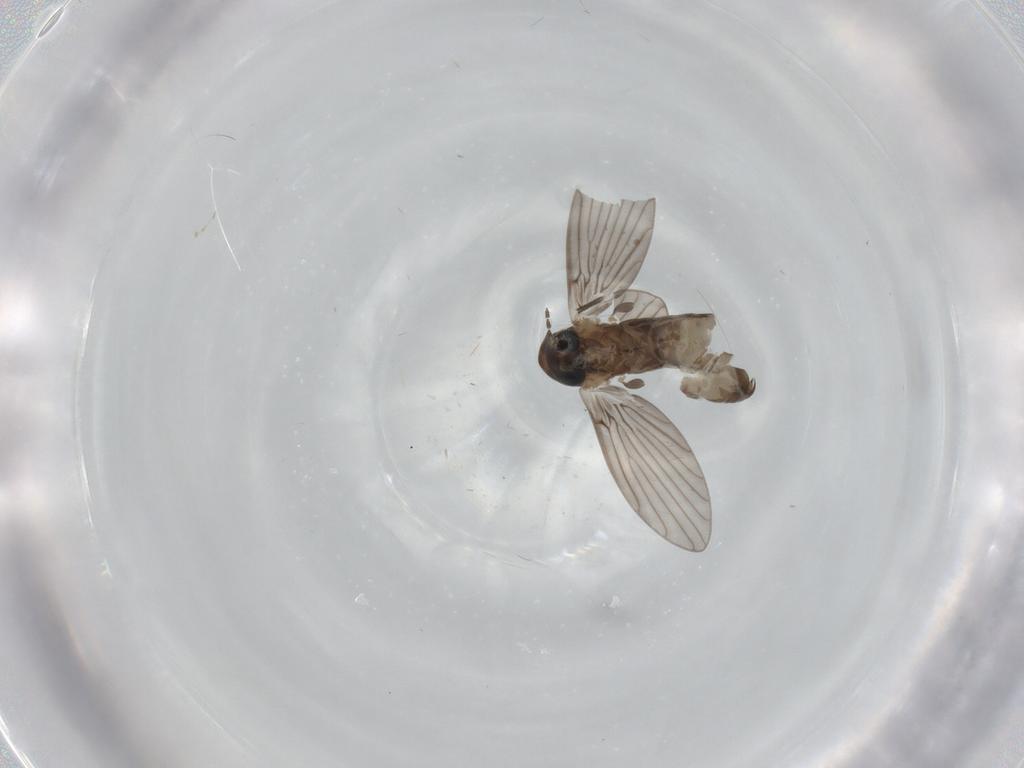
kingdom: Animalia
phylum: Arthropoda
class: Insecta
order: Diptera
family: Psychodidae
